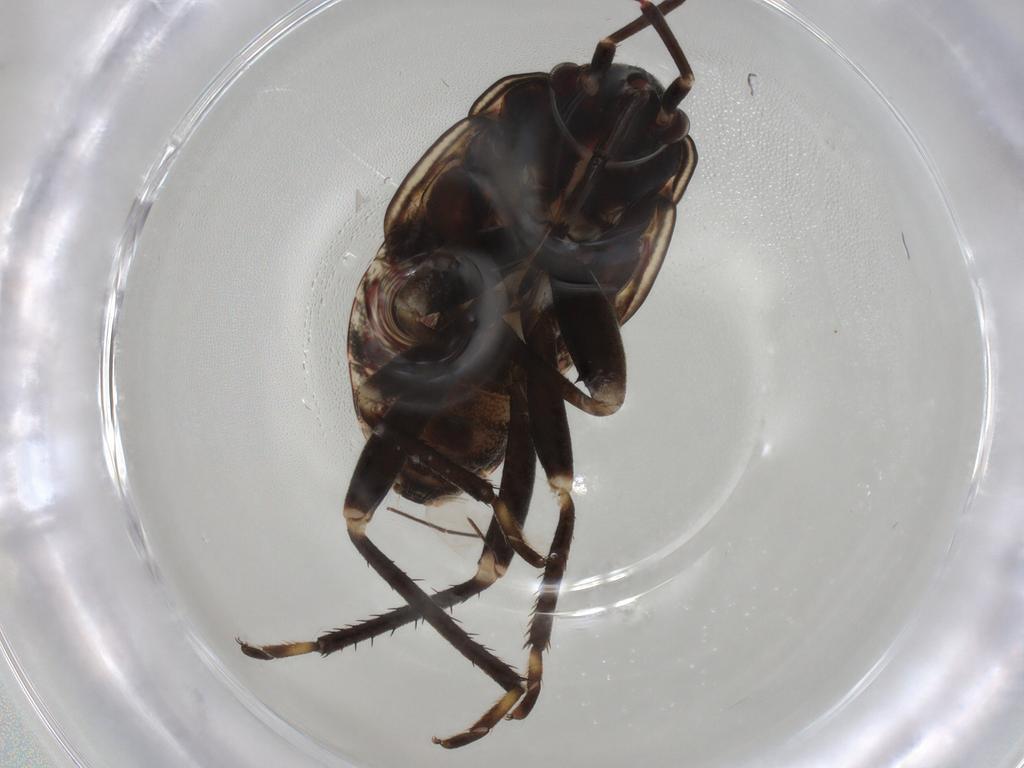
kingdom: Animalia
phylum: Arthropoda
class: Insecta
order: Hemiptera
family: Rhyparochromidae
